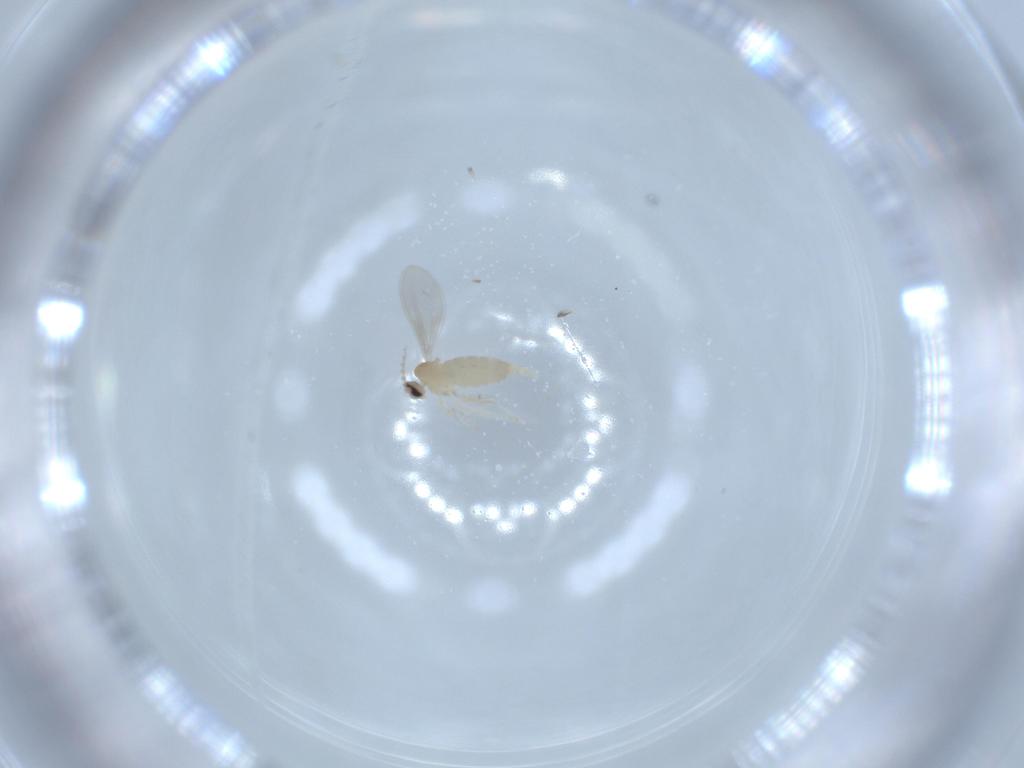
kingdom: Animalia
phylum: Arthropoda
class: Insecta
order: Diptera
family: Cecidomyiidae
